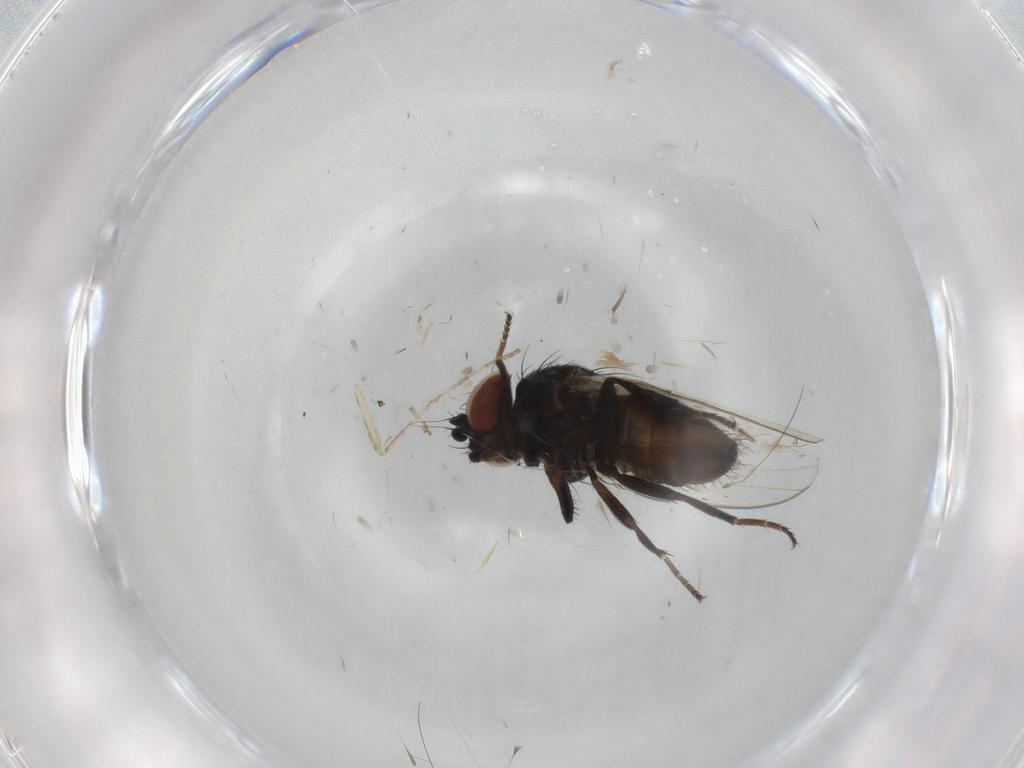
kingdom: Animalia
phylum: Arthropoda
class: Insecta
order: Diptera
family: Milichiidae
